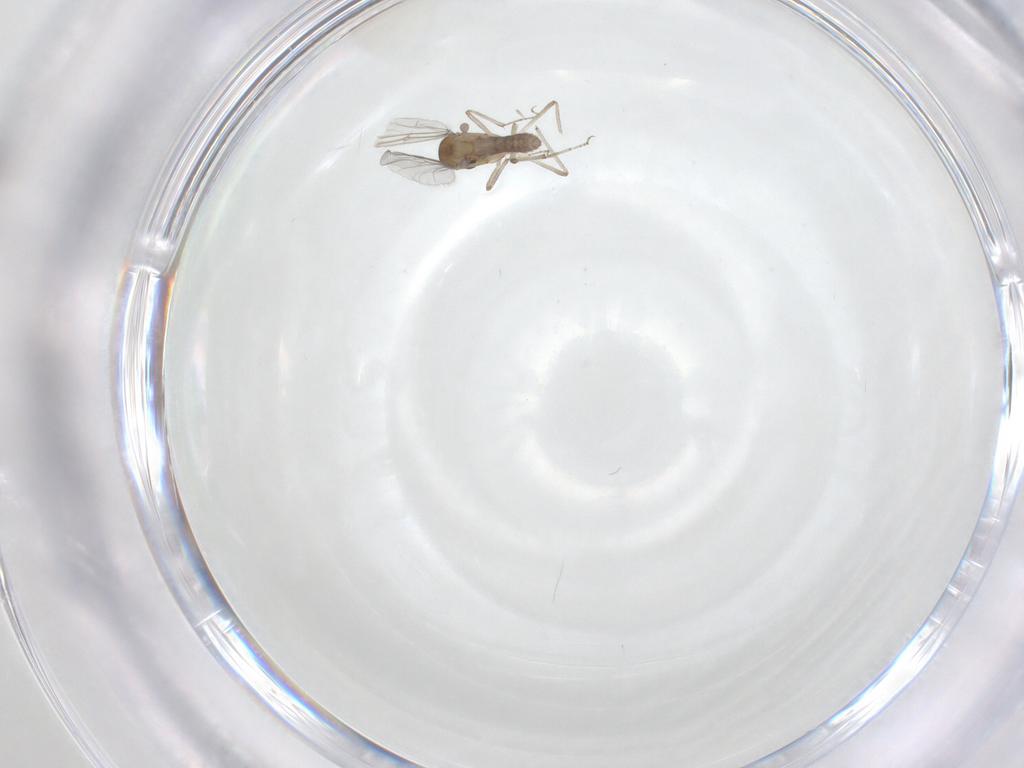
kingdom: Animalia
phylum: Arthropoda
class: Insecta
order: Diptera
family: Ceratopogonidae
